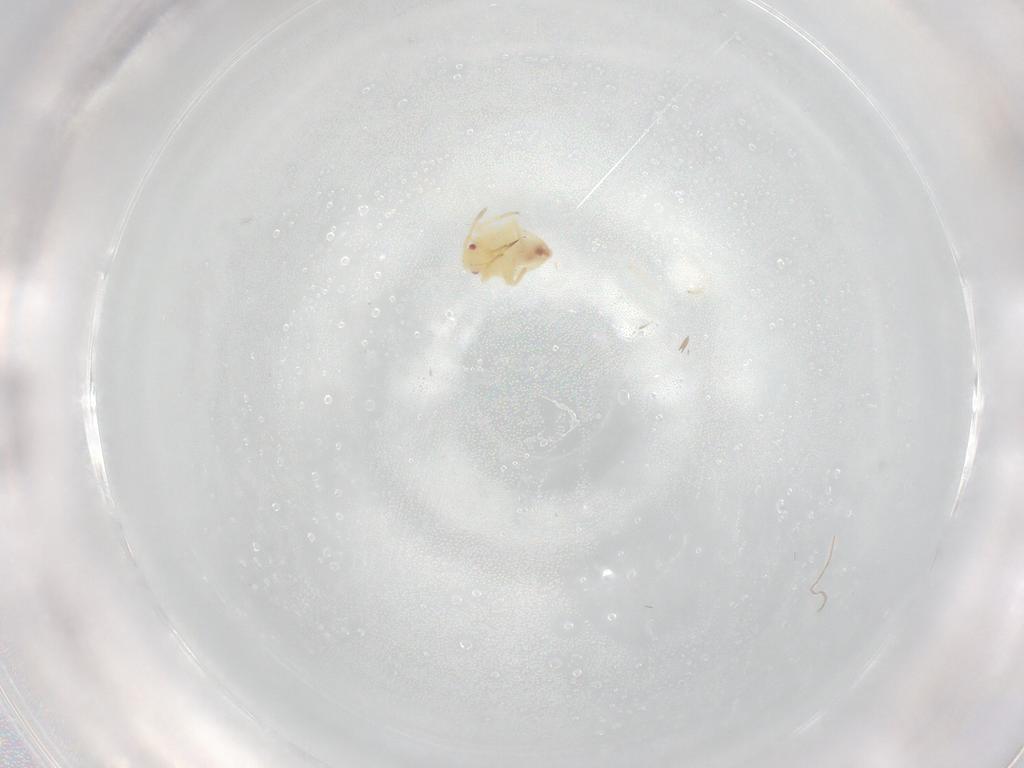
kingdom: Animalia
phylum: Arthropoda
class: Insecta
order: Hemiptera
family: Miridae
